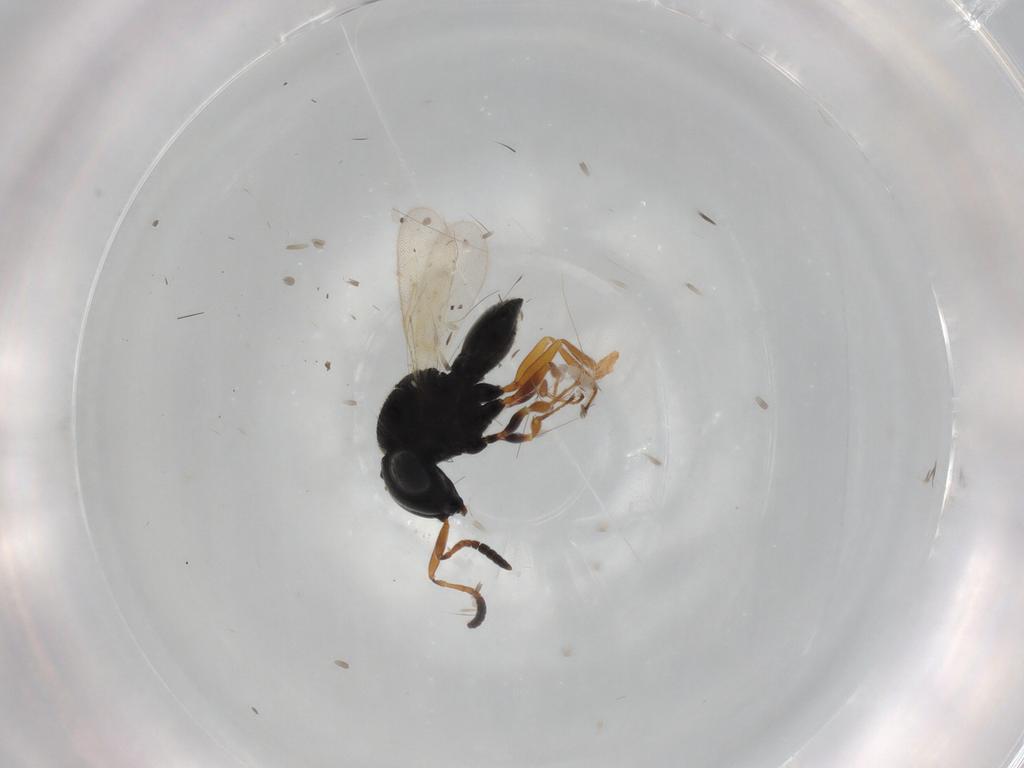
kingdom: Animalia
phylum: Arthropoda
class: Insecta
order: Hymenoptera
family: Scelionidae
